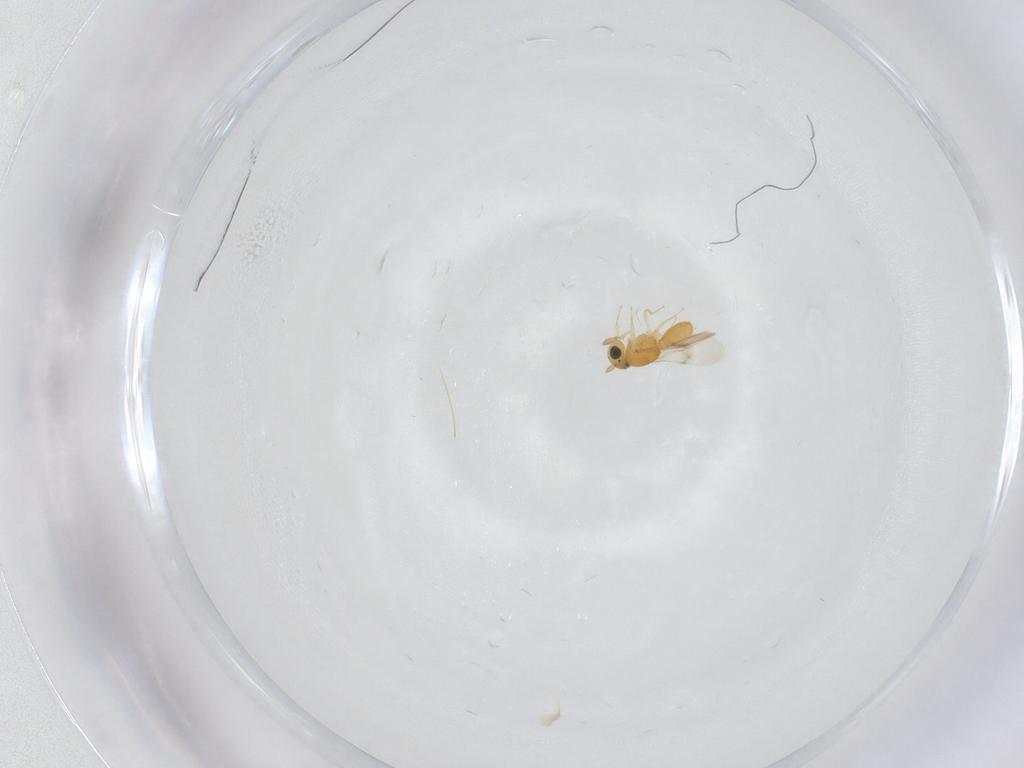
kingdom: Animalia
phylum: Arthropoda
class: Insecta
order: Hymenoptera
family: Scelionidae
